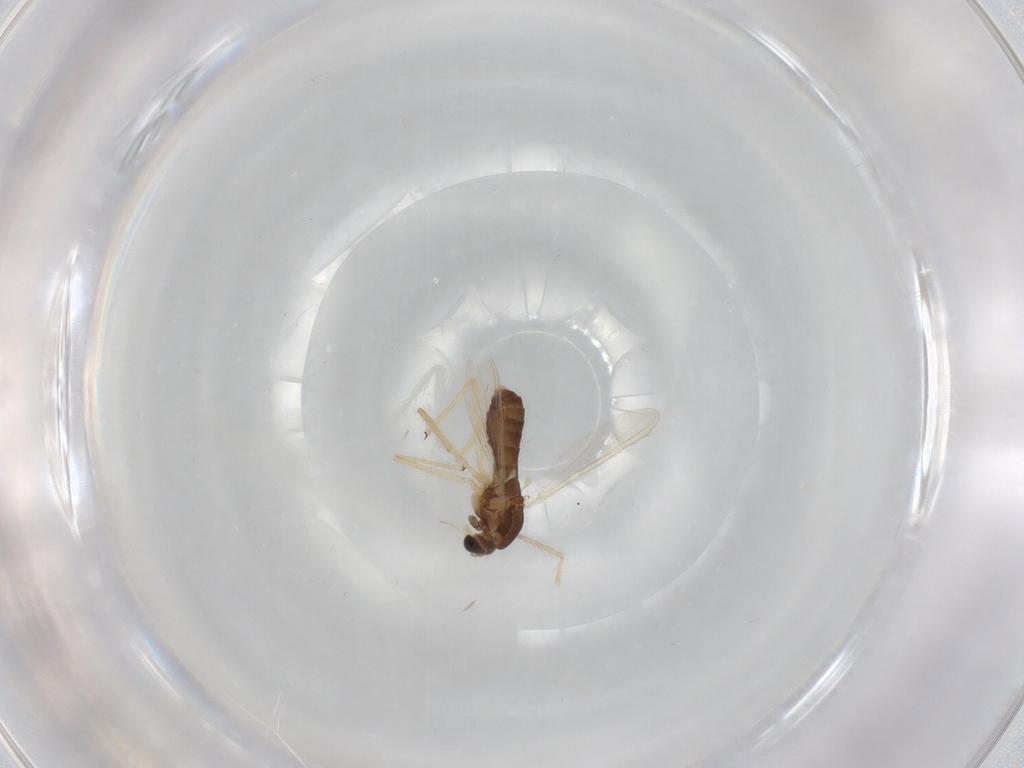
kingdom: Animalia
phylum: Arthropoda
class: Insecta
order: Diptera
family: Chironomidae
